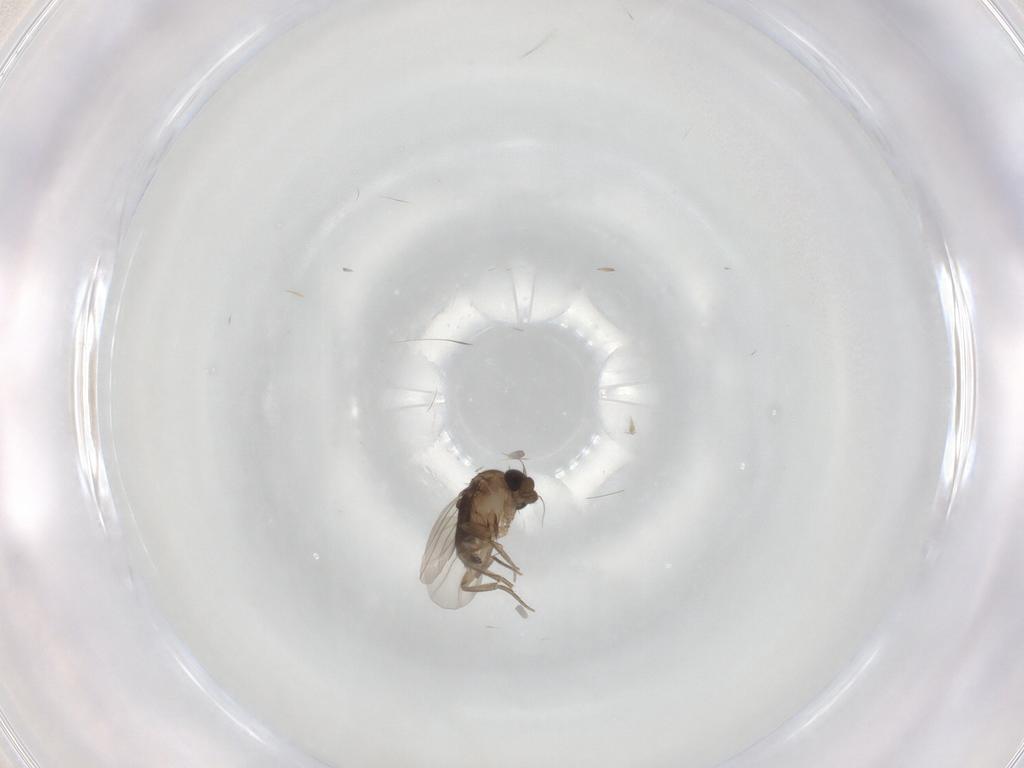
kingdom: Animalia
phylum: Arthropoda
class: Insecta
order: Diptera
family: Phoridae
